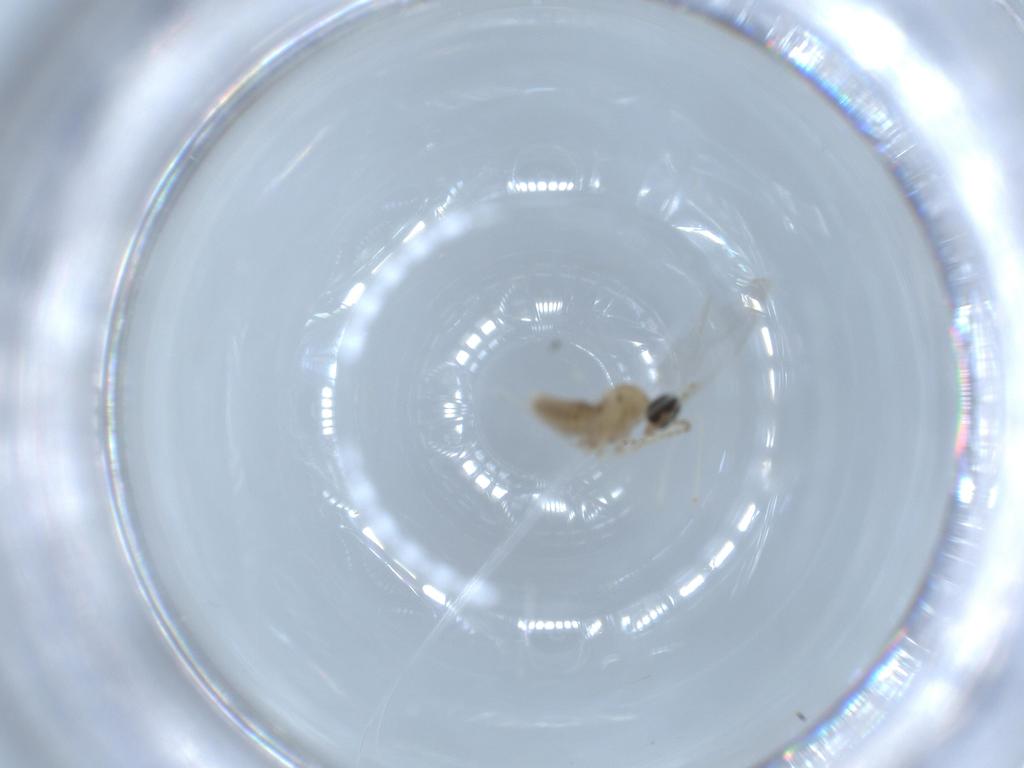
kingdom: Animalia
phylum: Arthropoda
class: Insecta
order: Diptera
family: Cecidomyiidae
